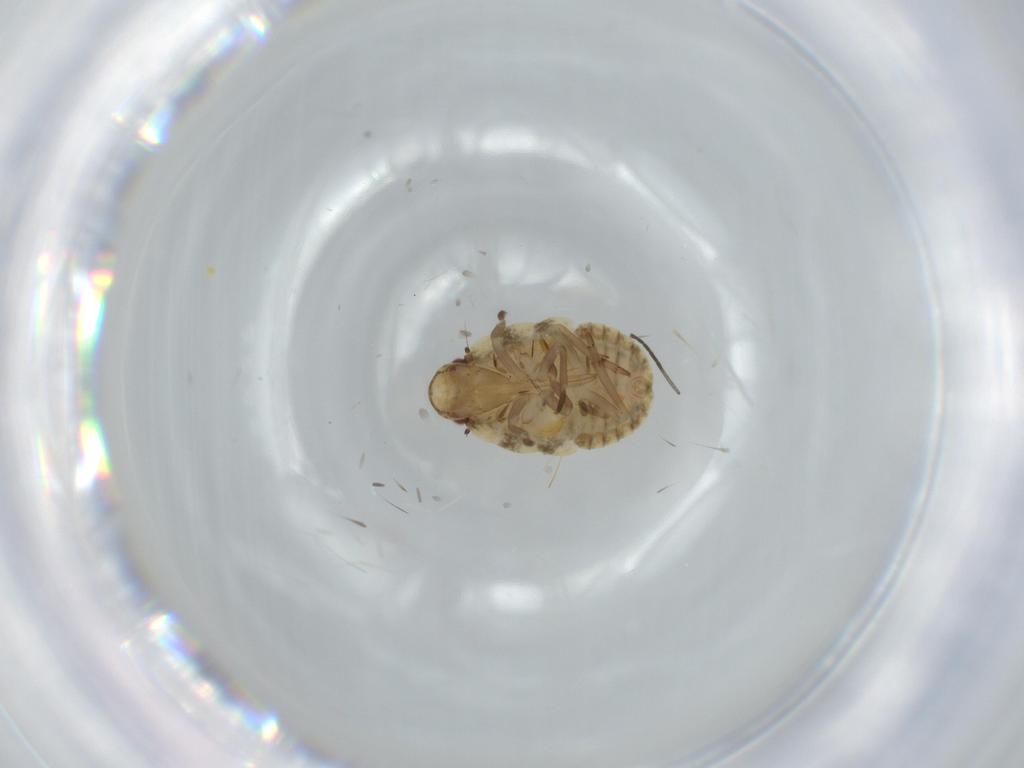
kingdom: Animalia
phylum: Arthropoda
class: Insecta
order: Hemiptera
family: Flatidae
